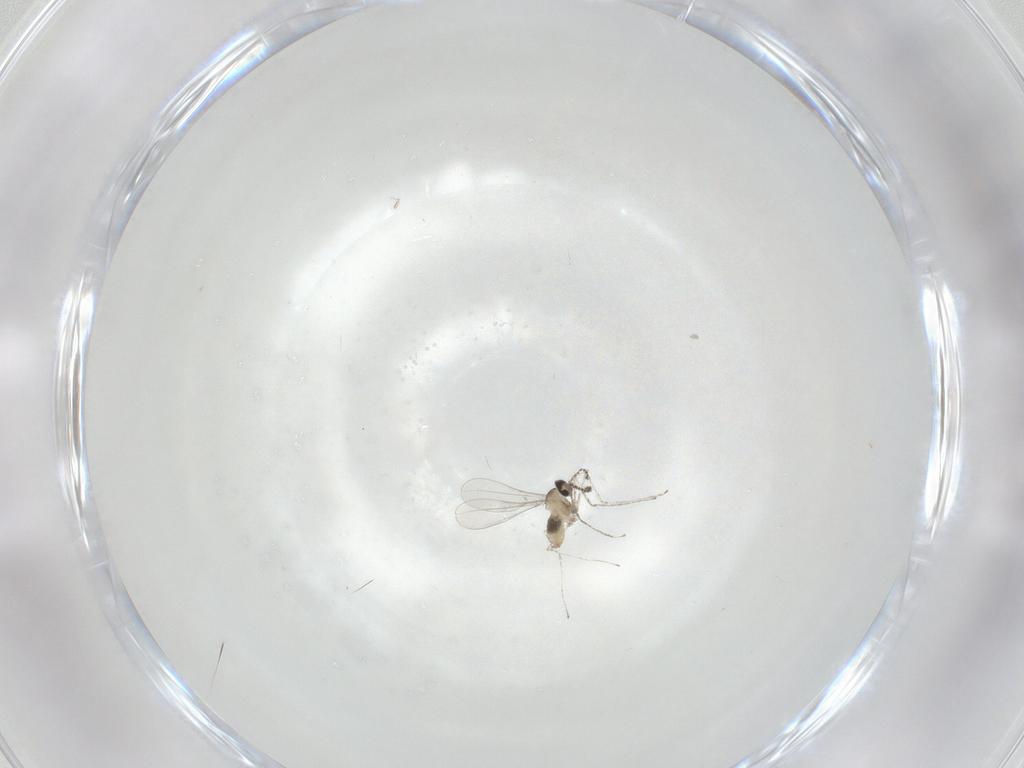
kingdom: Animalia
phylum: Arthropoda
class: Insecta
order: Diptera
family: Cecidomyiidae
